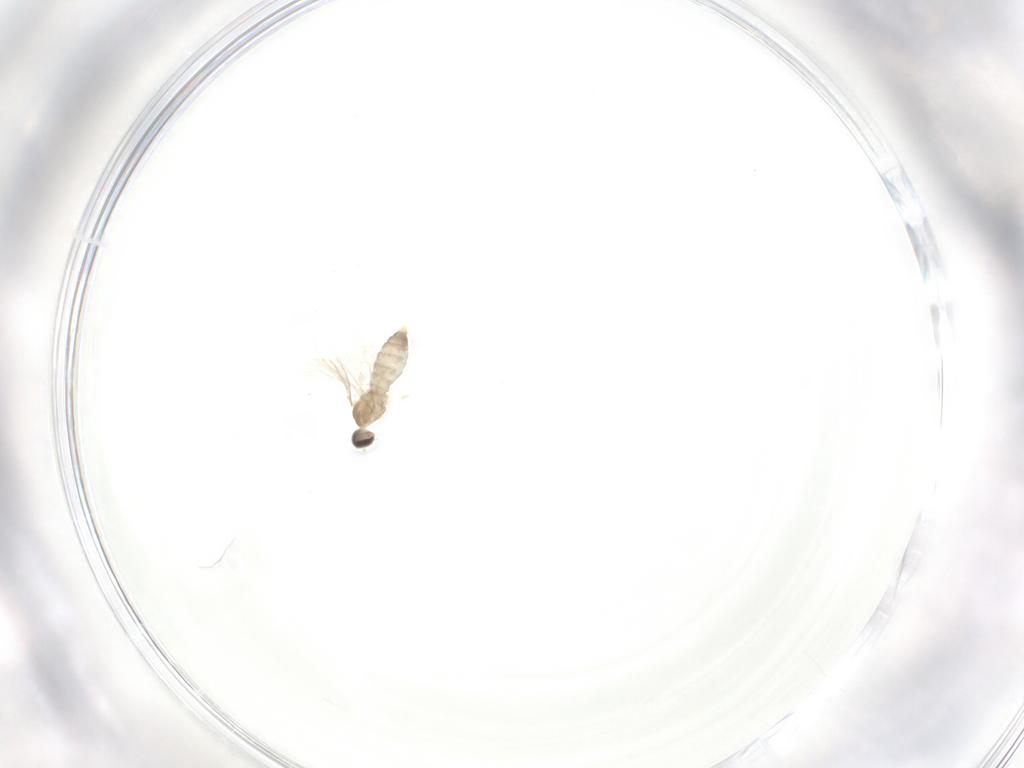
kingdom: Animalia
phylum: Arthropoda
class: Insecta
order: Diptera
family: Cecidomyiidae
